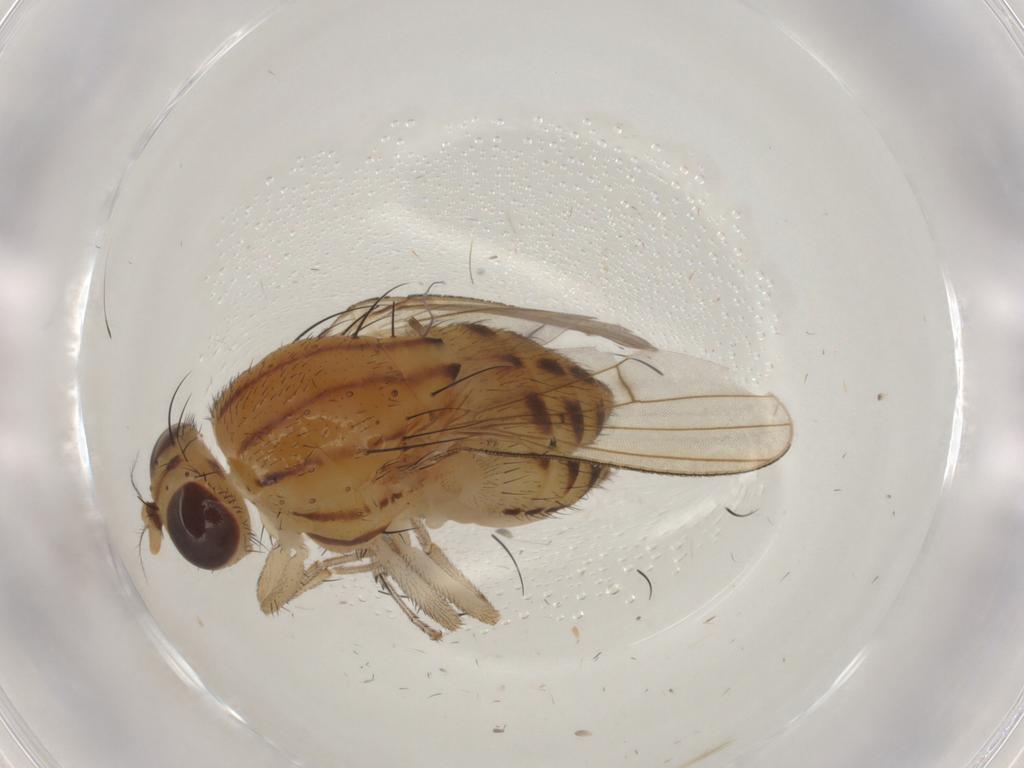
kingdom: Animalia
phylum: Arthropoda
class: Insecta
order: Diptera
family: Lauxaniidae
